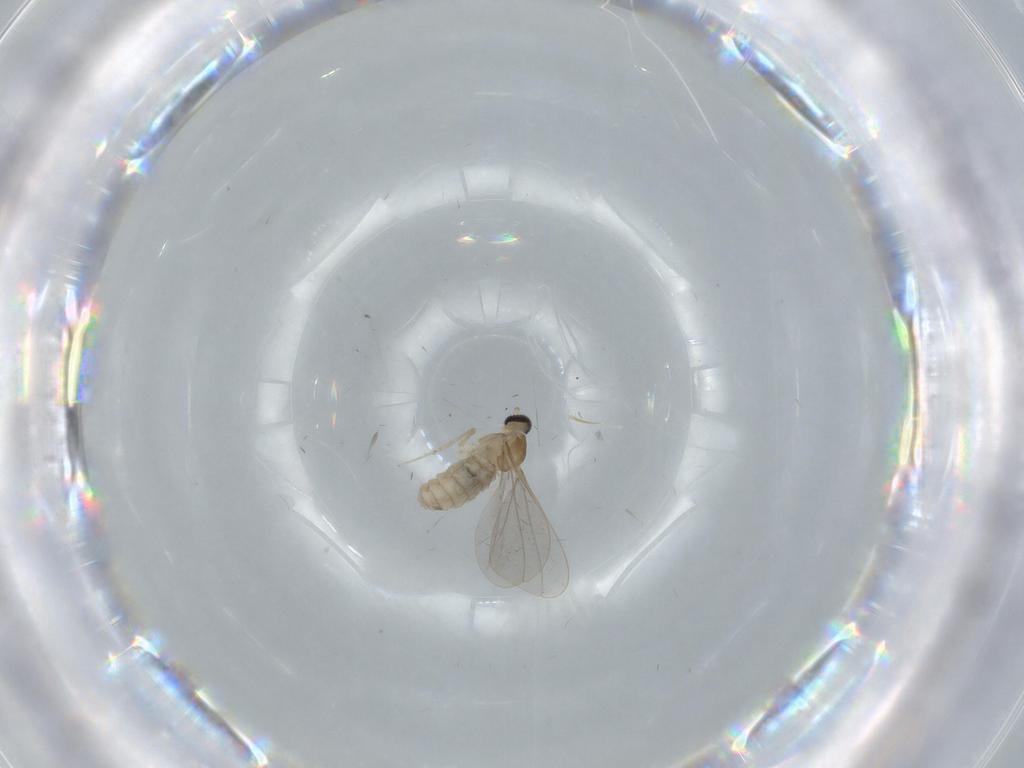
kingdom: Animalia
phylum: Arthropoda
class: Insecta
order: Diptera
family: Cecidomyiidae
